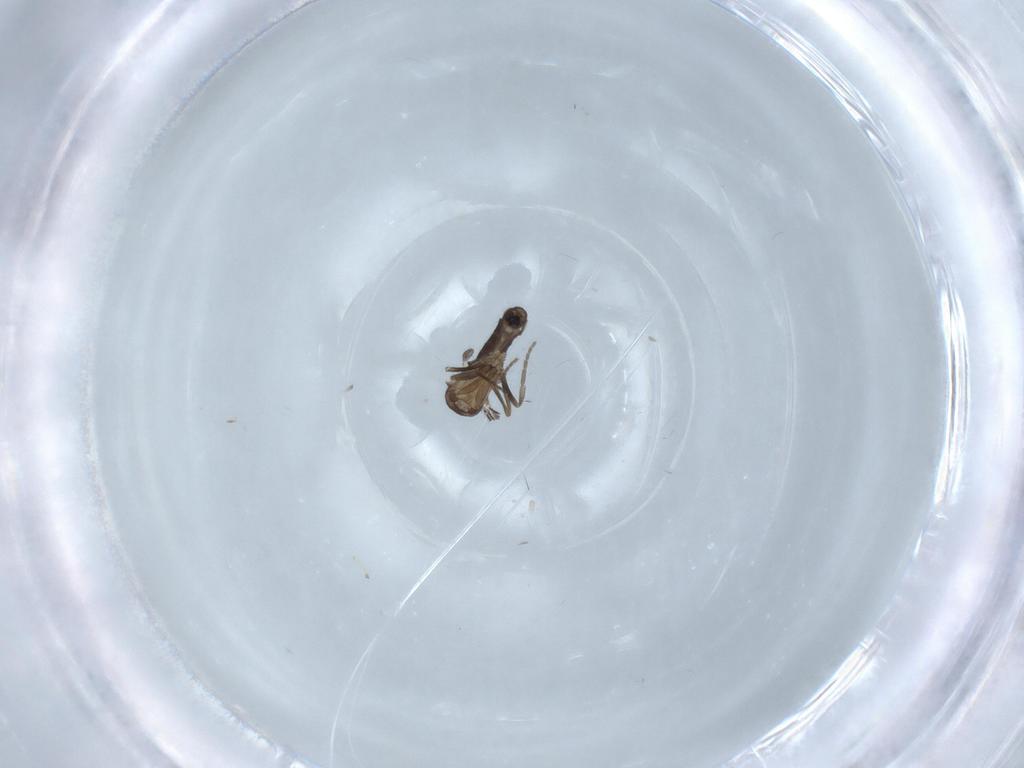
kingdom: Animalia
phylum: Arthropoda
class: Insecta
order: Diptera
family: Phoridae
